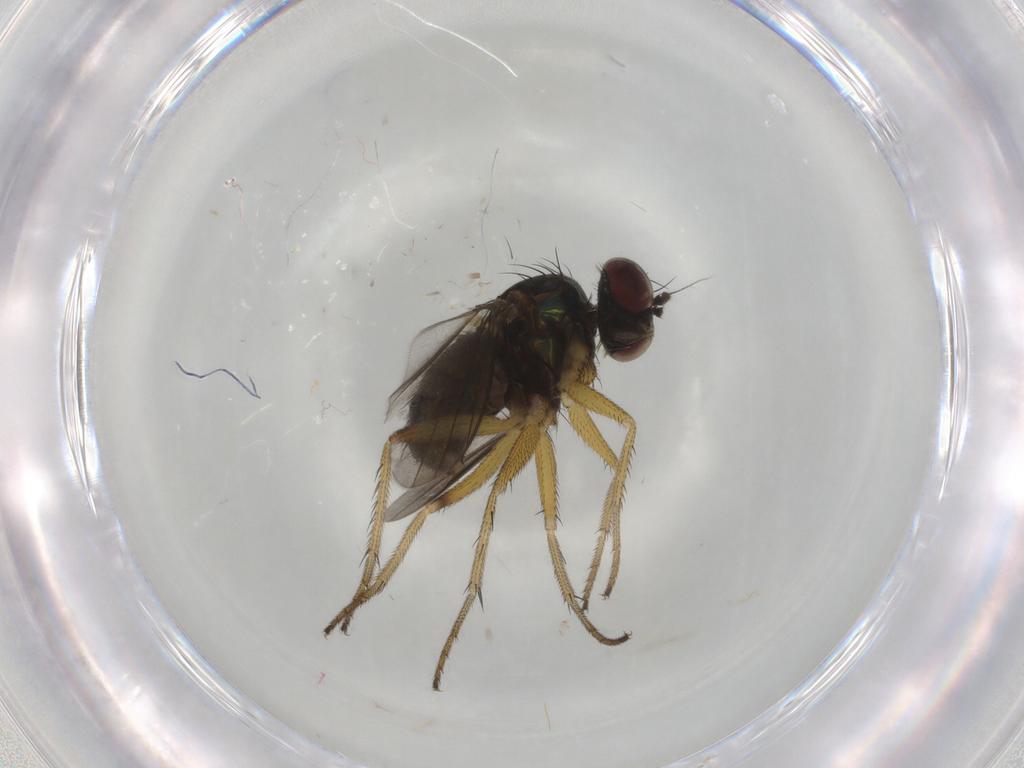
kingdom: Animalia
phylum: Arthropoda
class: Insecta
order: Diptera
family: Dolichopodidae
